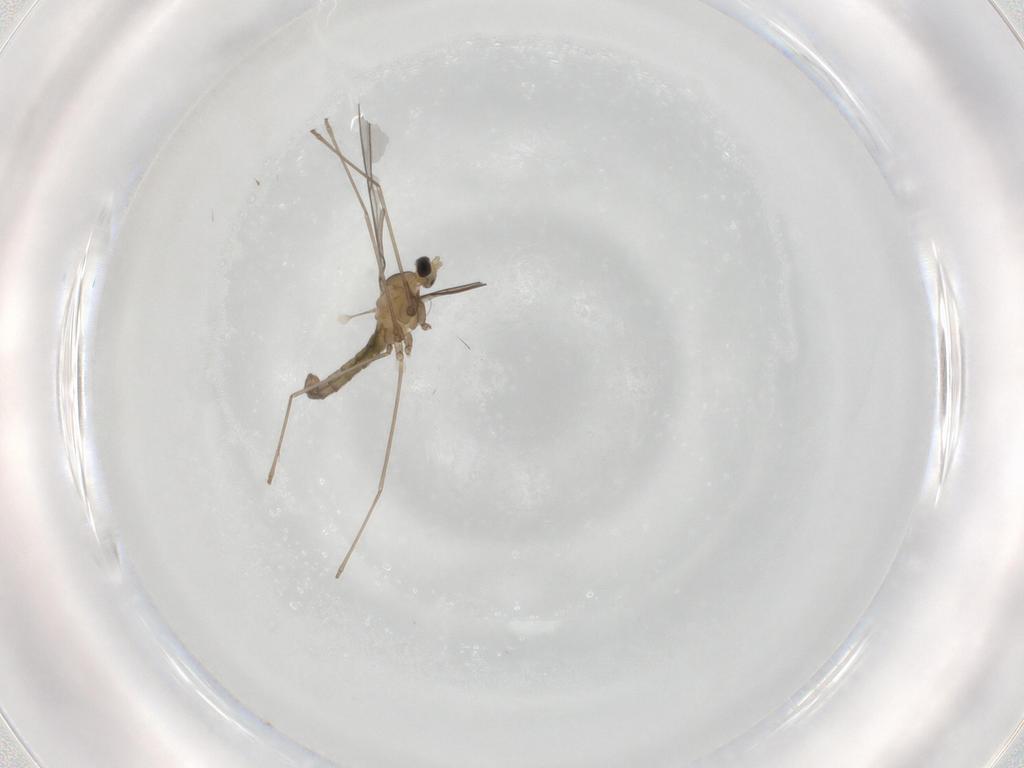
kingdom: Animalia
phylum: Arthropoda
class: Insecta
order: Diptera
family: Cecidomyiidae
